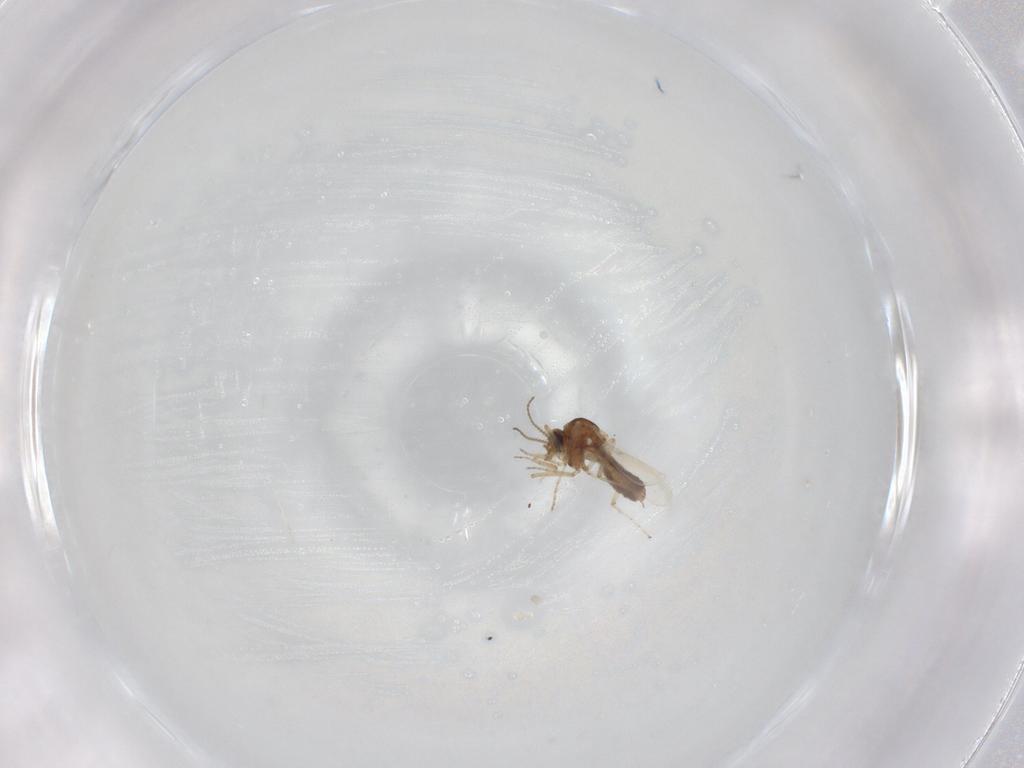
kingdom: Animalia
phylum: Arthropoda
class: Insecta
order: Diptera
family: Ceratopogonidae
